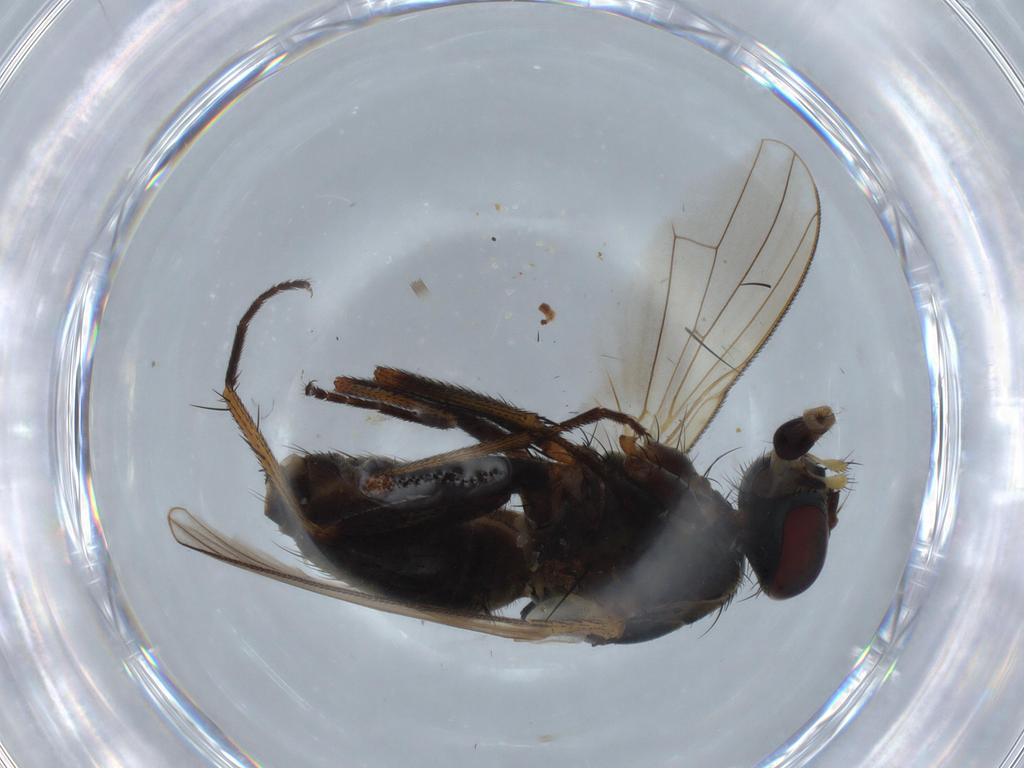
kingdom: Animalia
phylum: Arthropoda
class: Insecta
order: Diptera
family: Muscidae
